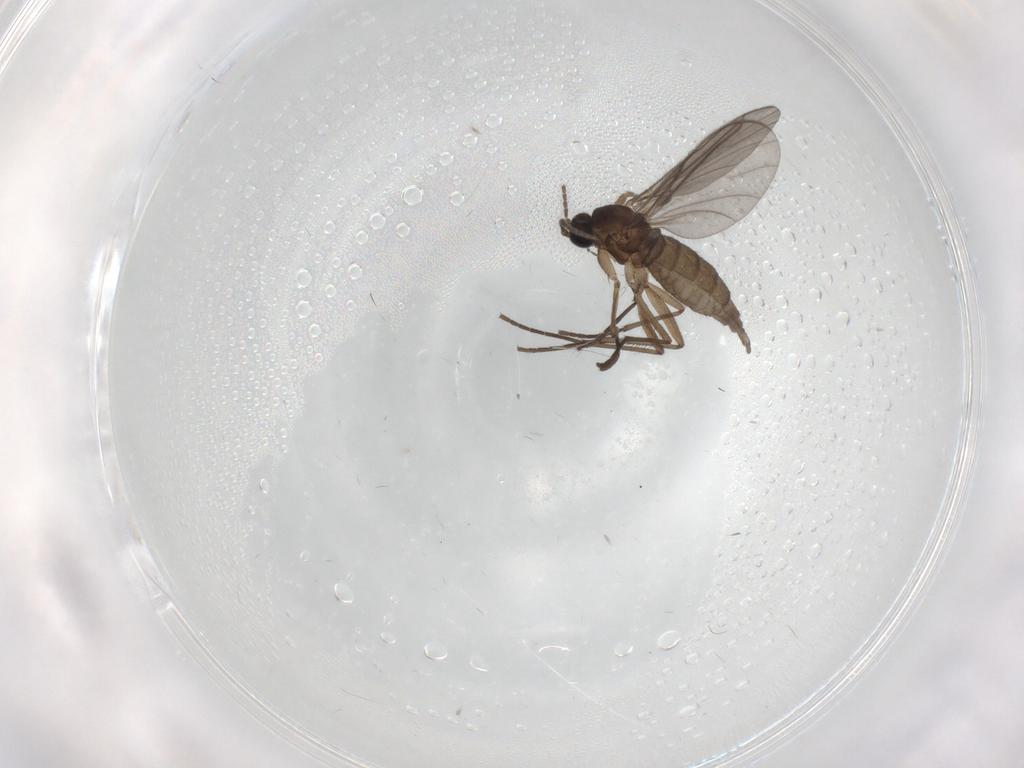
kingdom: Animalia
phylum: Arthropoda
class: Insecta
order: Diptera
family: Sciaridae
